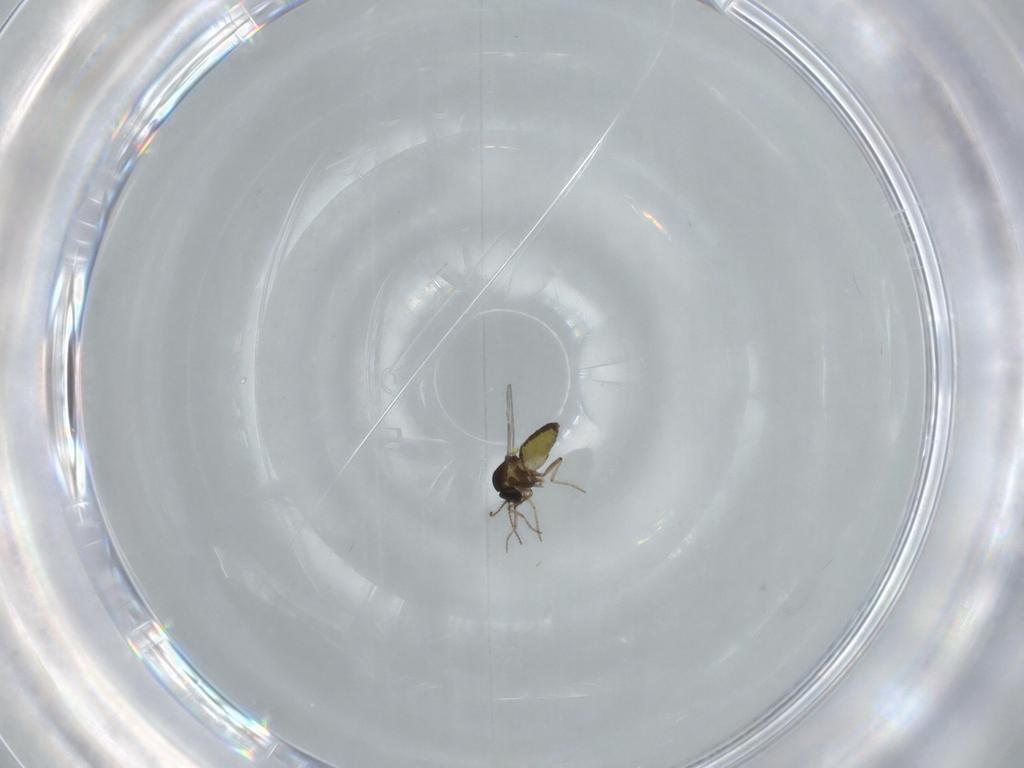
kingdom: Animalia
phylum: Arthropoda
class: Insecta
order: Diptera
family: Ceratopogonidae
